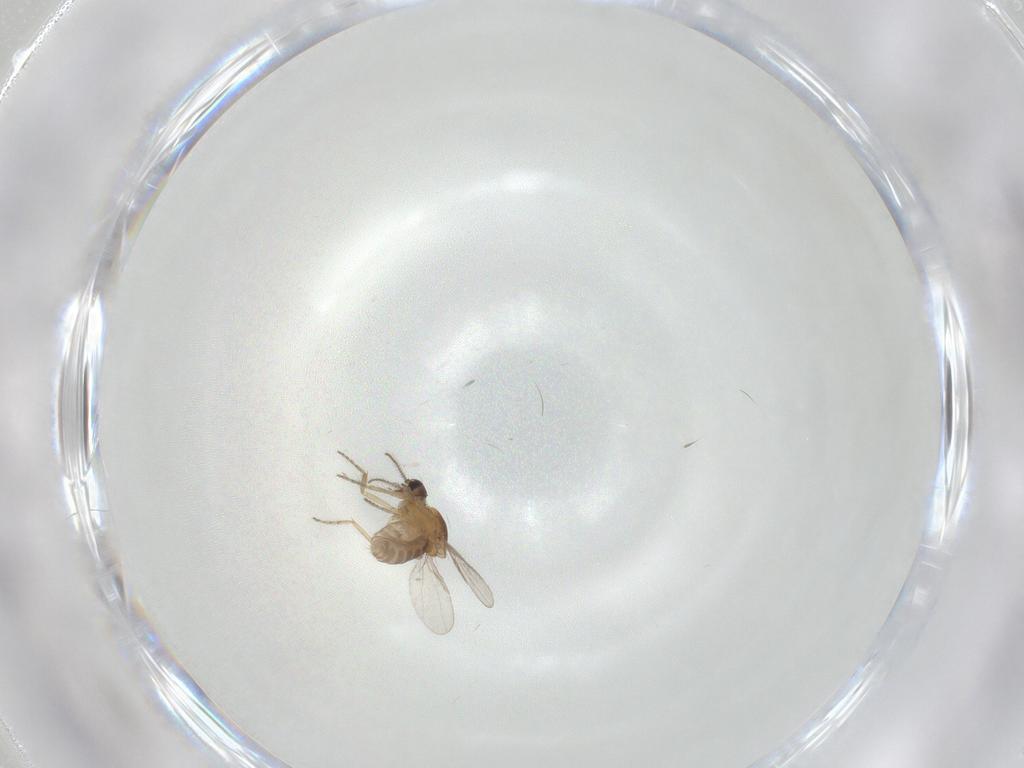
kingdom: Animalia
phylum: Arthropoda
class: Insecta
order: Diptera
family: Ceratopogonidae
